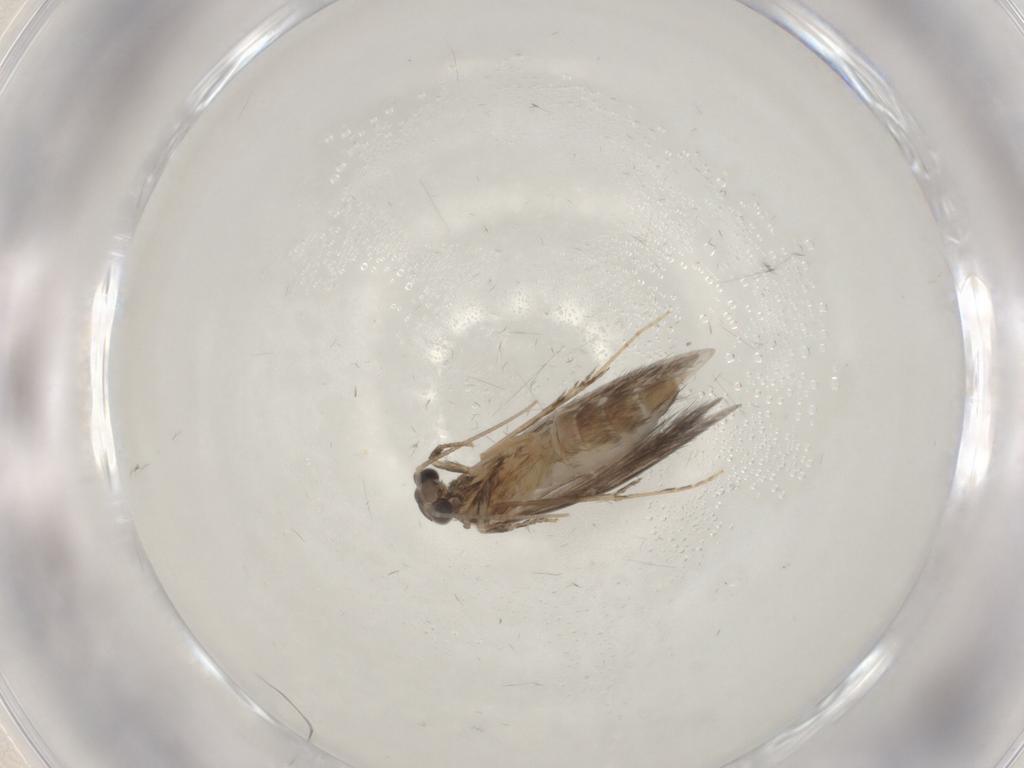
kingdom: Animalia
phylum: Arthropoda
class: Insecta
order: Trichoptera
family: Hydroptilidae
